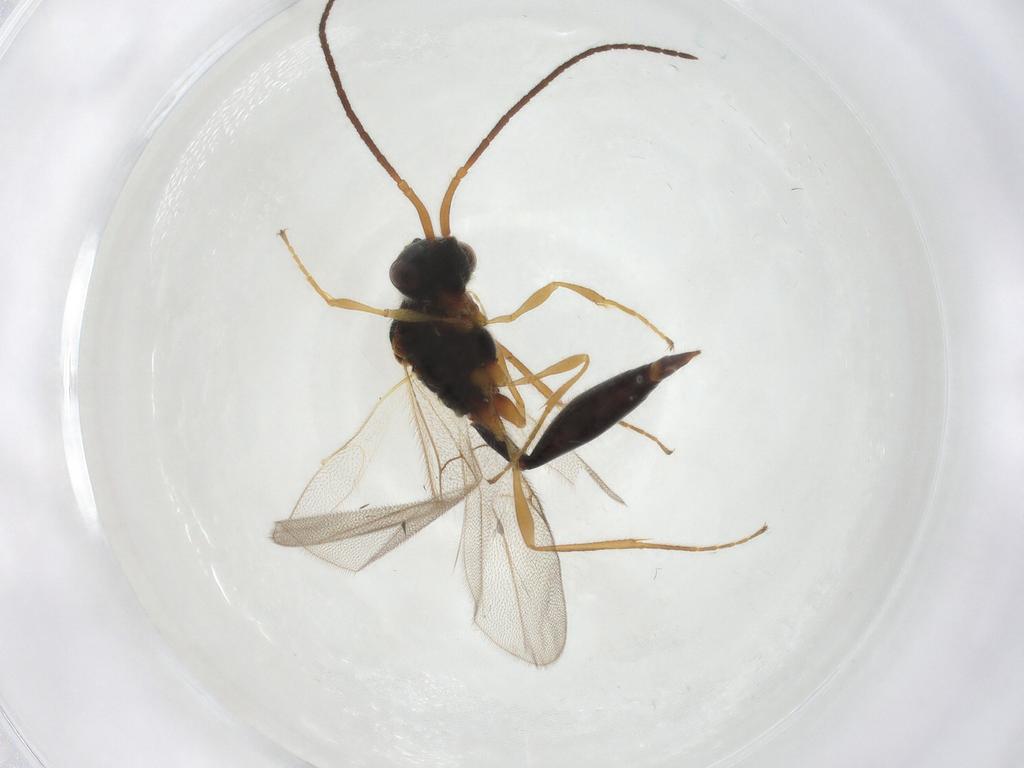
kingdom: Animalia
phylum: Arthropoda
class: Insecta
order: Hymenoptera
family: Diapriidae
